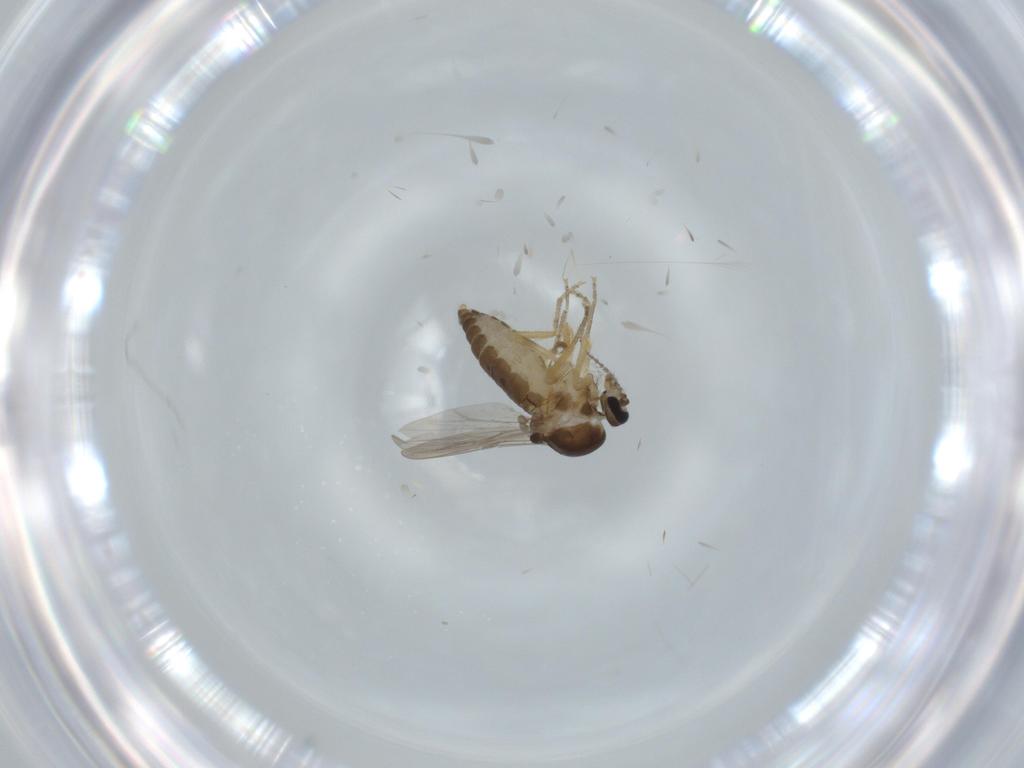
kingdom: Animalia
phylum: Arthropoda
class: Insecta
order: Diptera
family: Ceratopogonidae
